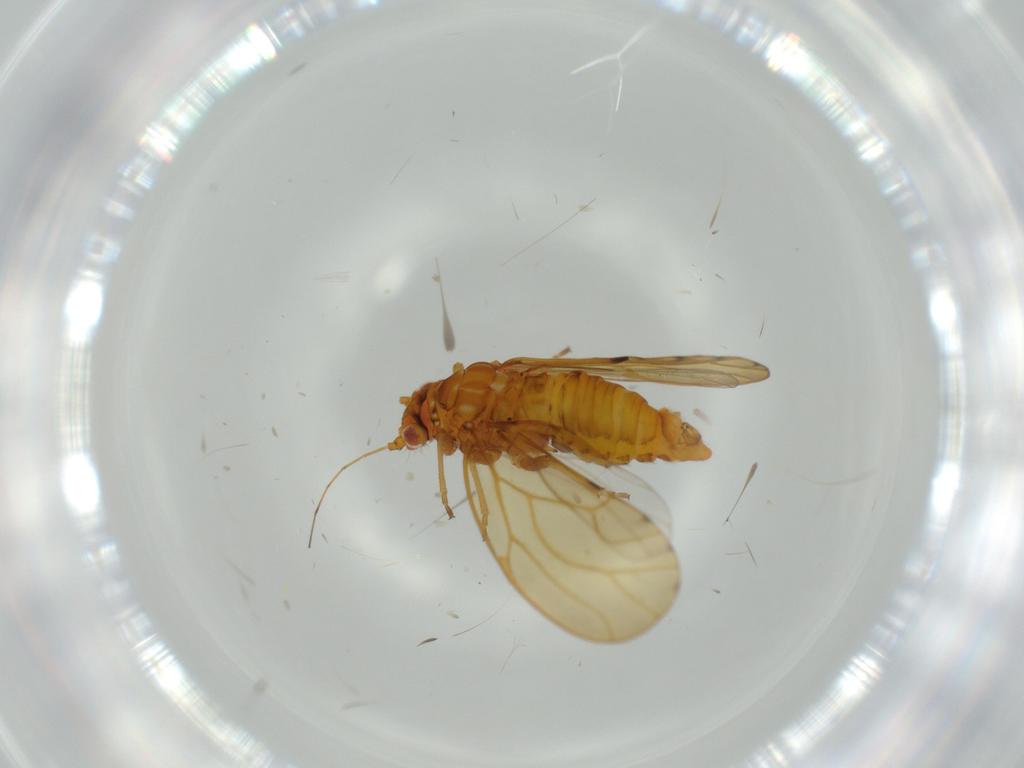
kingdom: Animalia
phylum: Arthropoda
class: Insecta
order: Hemiptera
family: Psylloidea_incertae_sedis
